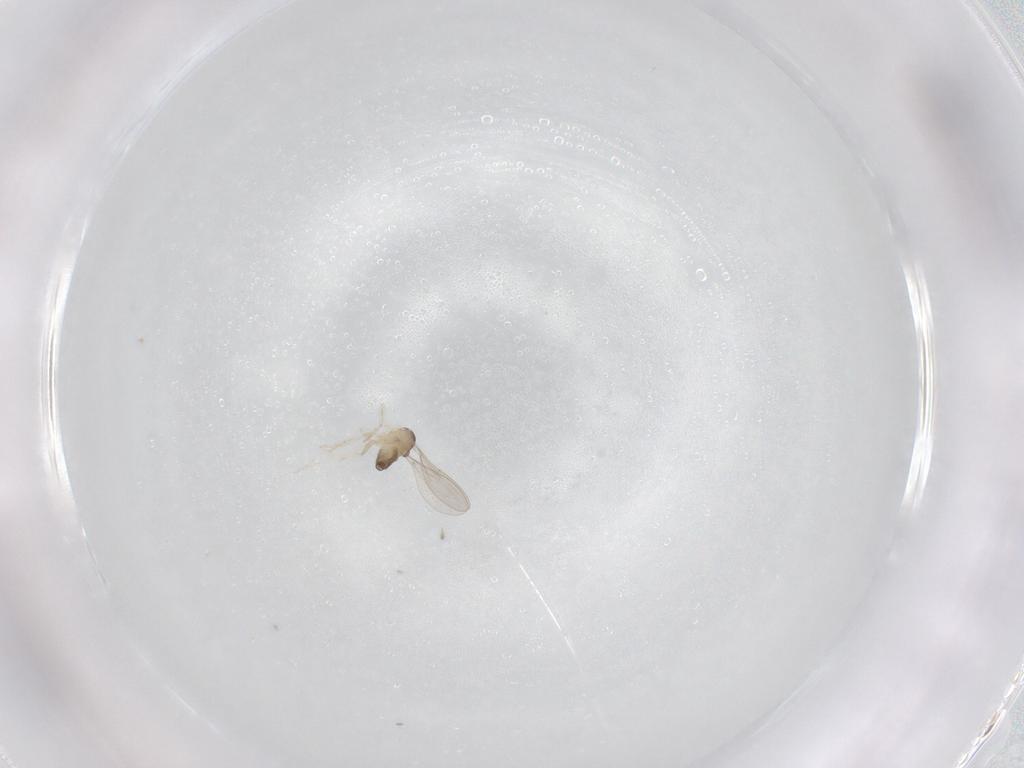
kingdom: Animalia
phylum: Arthropoda
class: Insecta
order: Diptera
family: Cecidomyiidae
